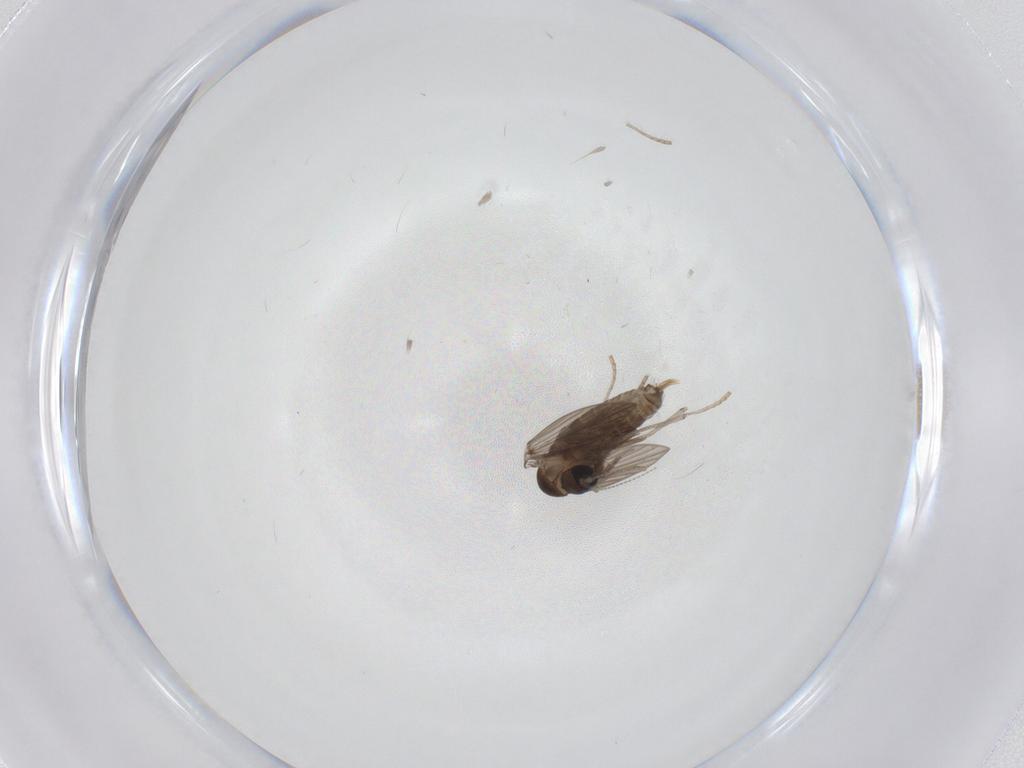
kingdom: Animalia
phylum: Arthropoda
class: Insecta
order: Diptera
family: Psychodidae
